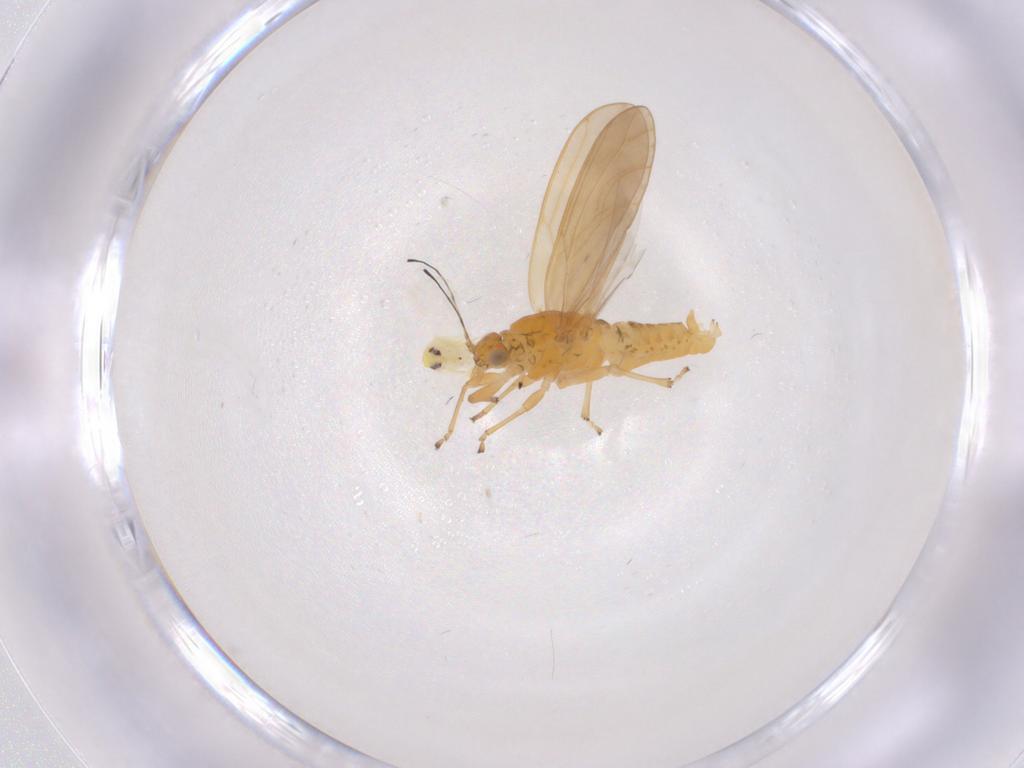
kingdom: Animalia
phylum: Arthropoda
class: Insecta
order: Hemiptera
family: Aleyrodidae
